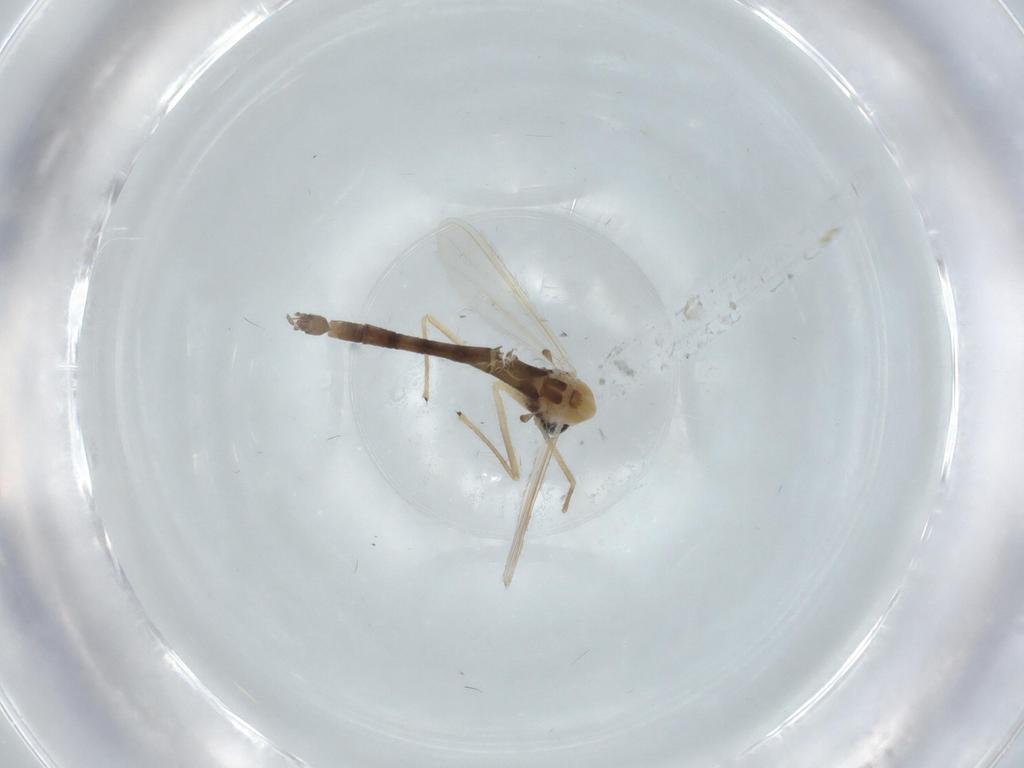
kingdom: Animalia
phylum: Arthropoda
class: Insecta
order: Diptera
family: Chironomidae
